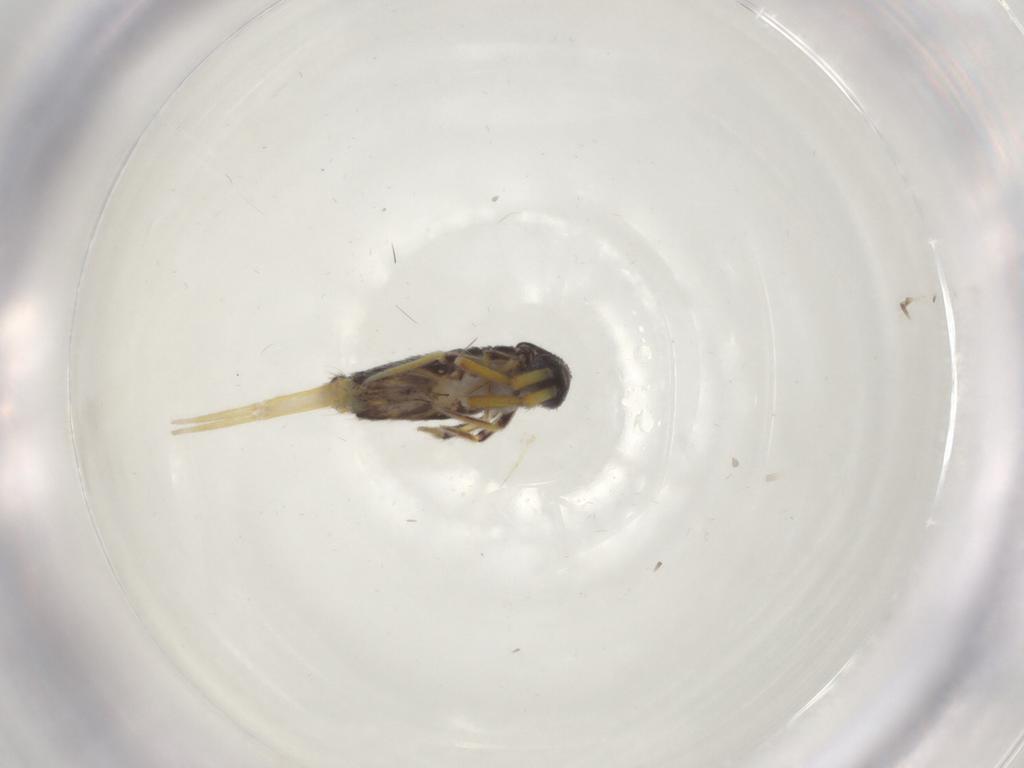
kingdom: Animalia
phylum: Arthropoda
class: Collembola
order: Entomobryomorpha
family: Entomobryidae
